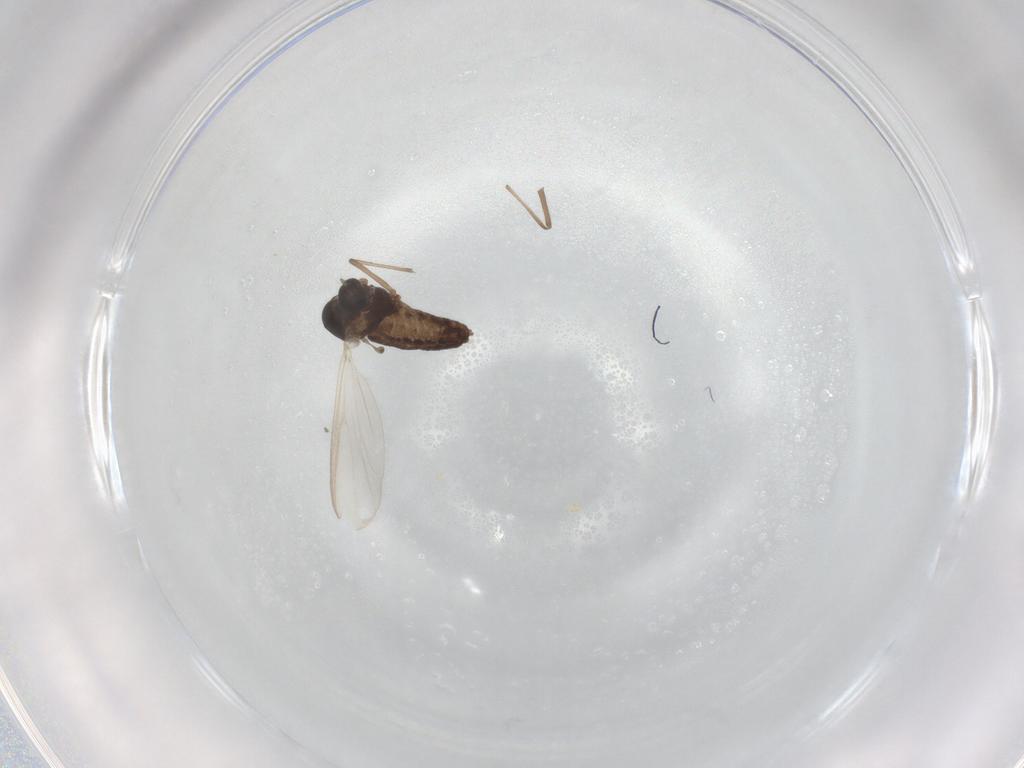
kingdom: Animalia
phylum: Arthropoda
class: Insecta
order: Diptera
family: Chironomidae
